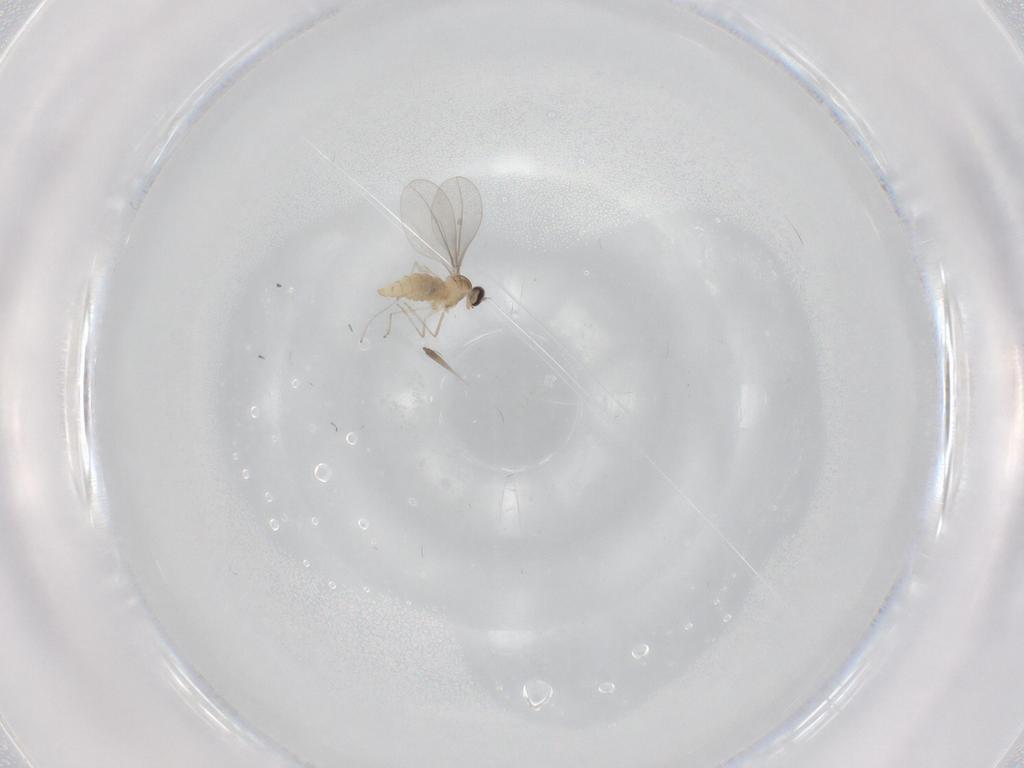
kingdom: Animalia
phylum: Arthropoda
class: Insecta
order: Diptera
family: Cecidomyiidae
